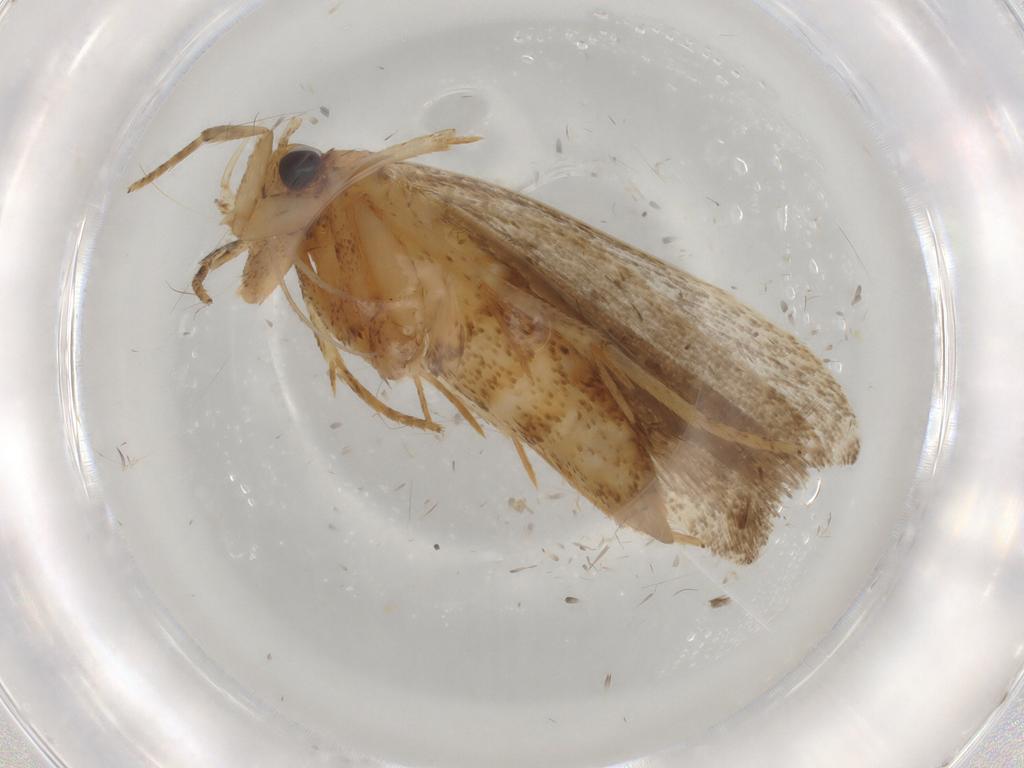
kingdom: Animalia
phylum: Arthropoda
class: Insecta
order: Lepidoptera
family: Autostichidae
